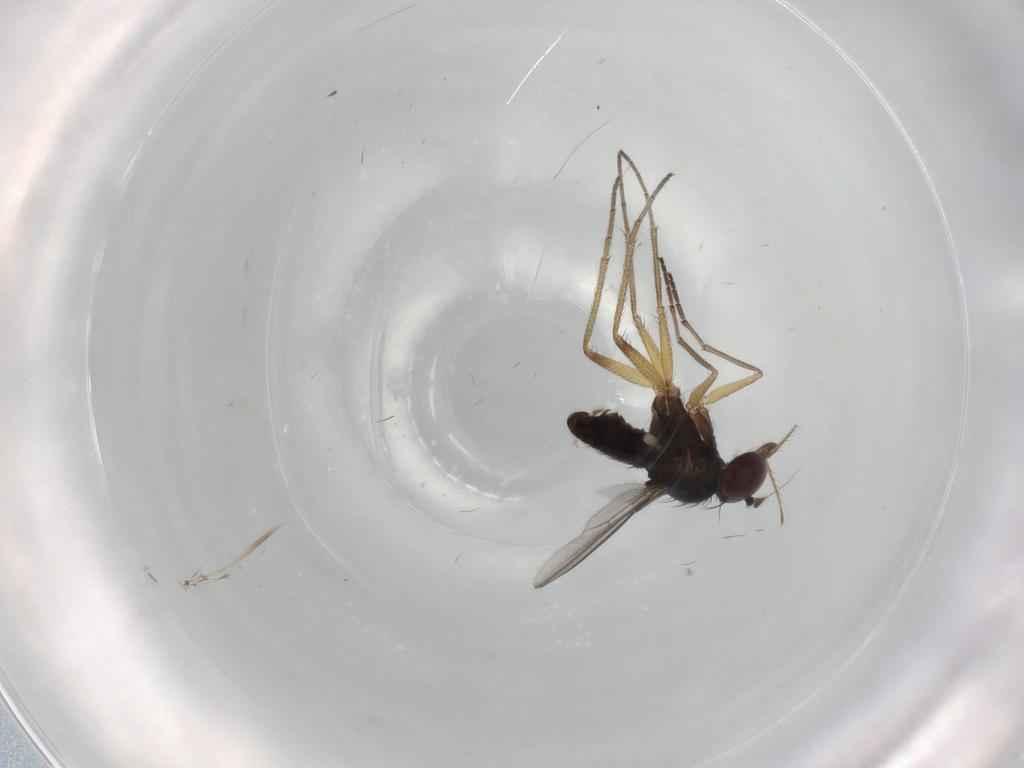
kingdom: Animalia
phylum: Arthropoda
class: Insecta
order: Diptera
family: Dolichopodidae
